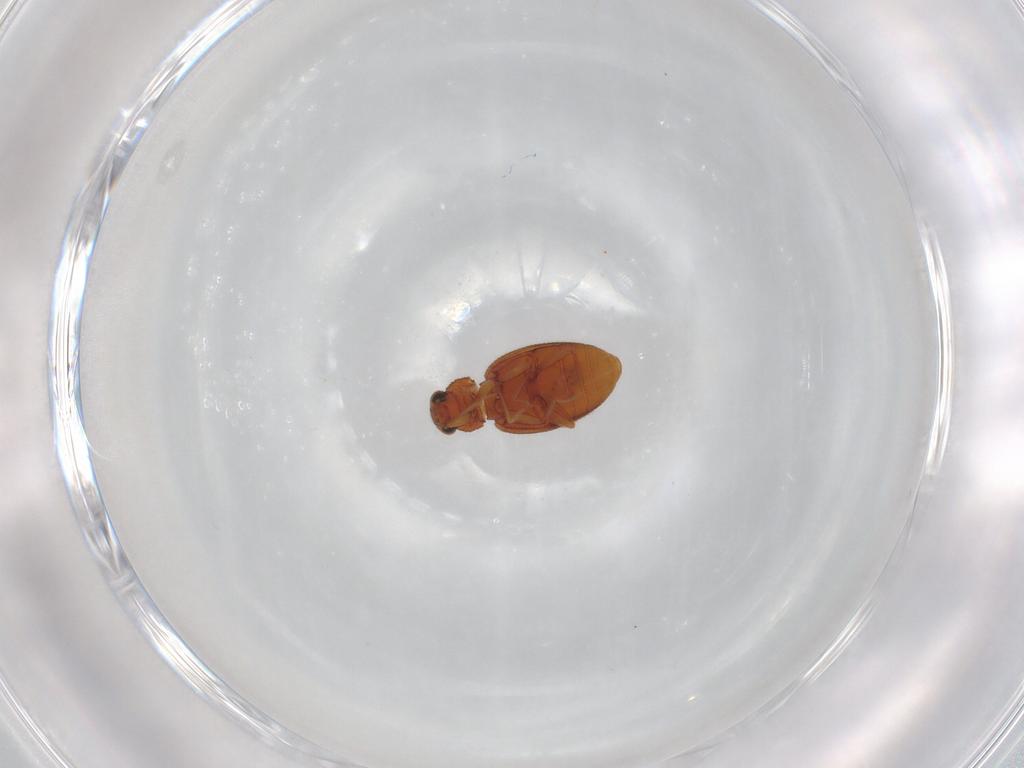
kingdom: Animalia
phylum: Arthropoda
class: Insecta
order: Coleoptera
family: Latridiidae
